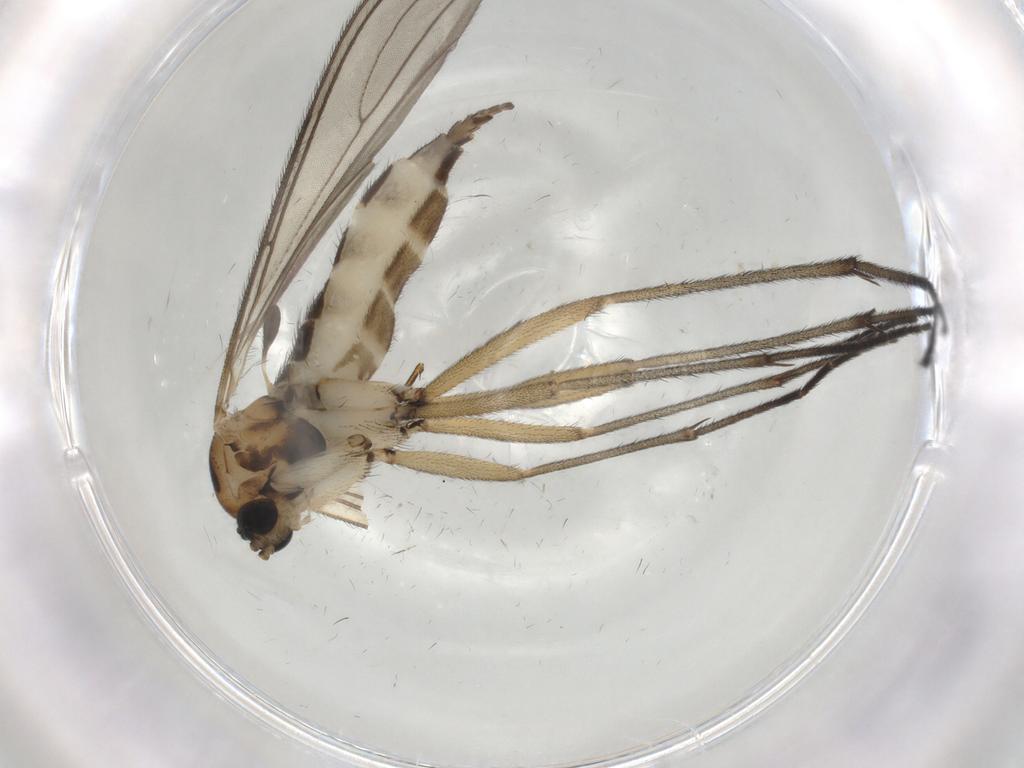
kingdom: Animalia
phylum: Arthropoda
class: Insecta
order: Diptera
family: Sciaridae
